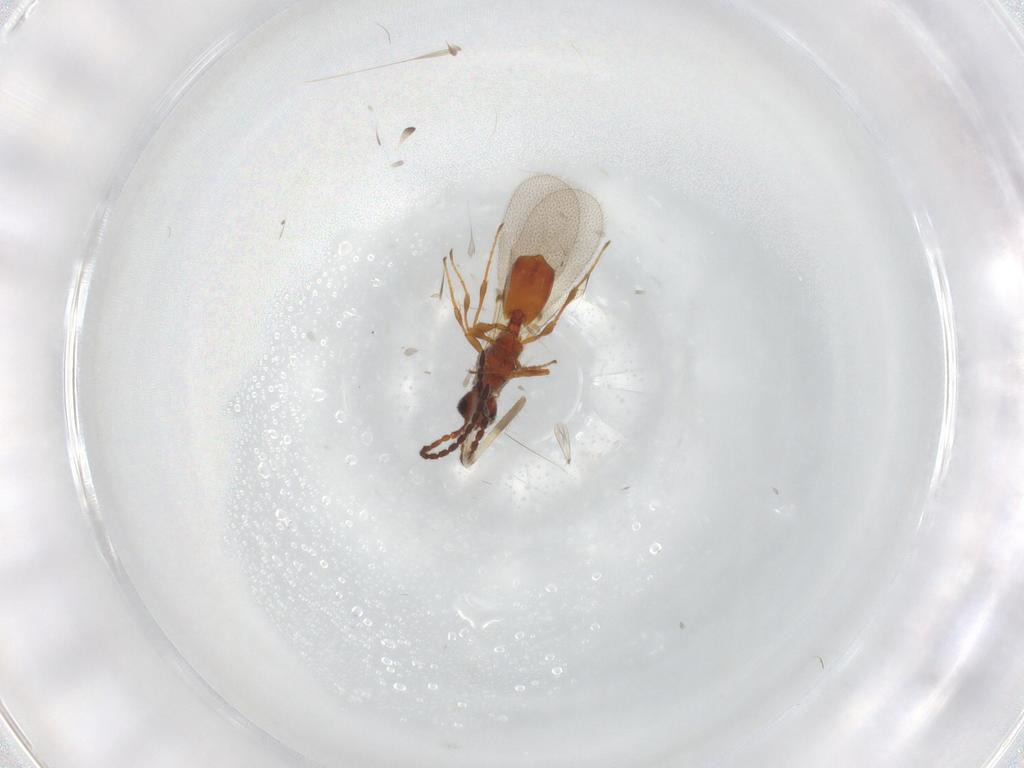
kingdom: Animalia
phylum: Arthropoda
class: Insecta
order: Hymenoptera
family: Diapriidae
